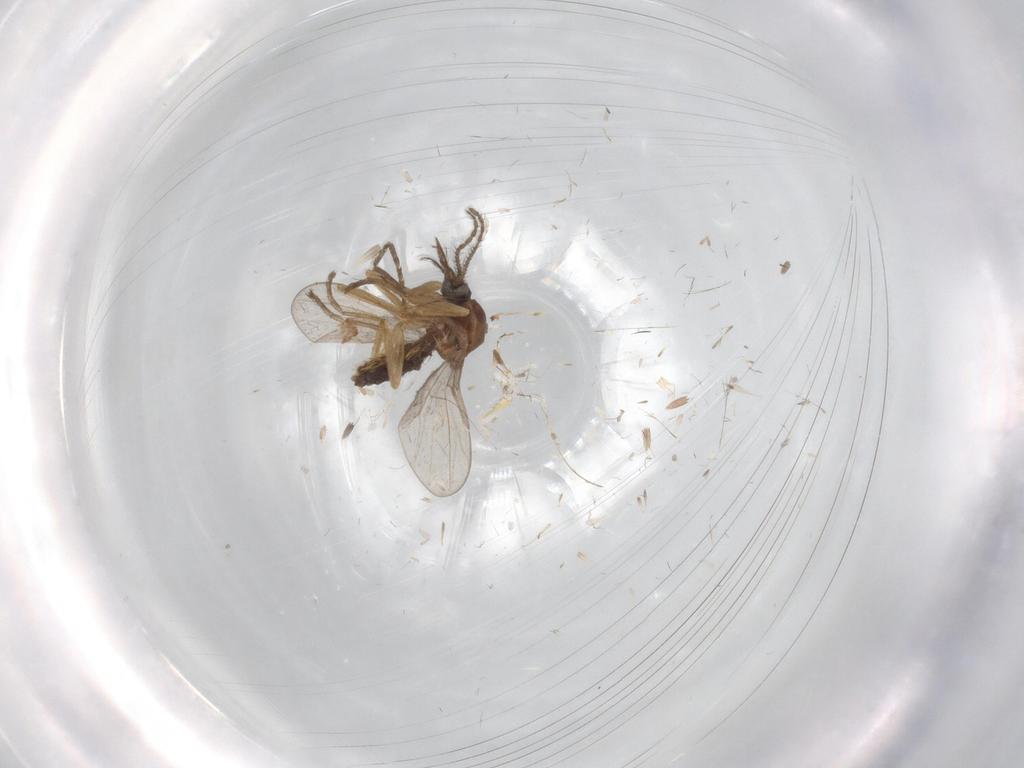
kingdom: Animalia
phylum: Arthropoda
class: Insecta
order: Diptera
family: Ceratopogonidae
